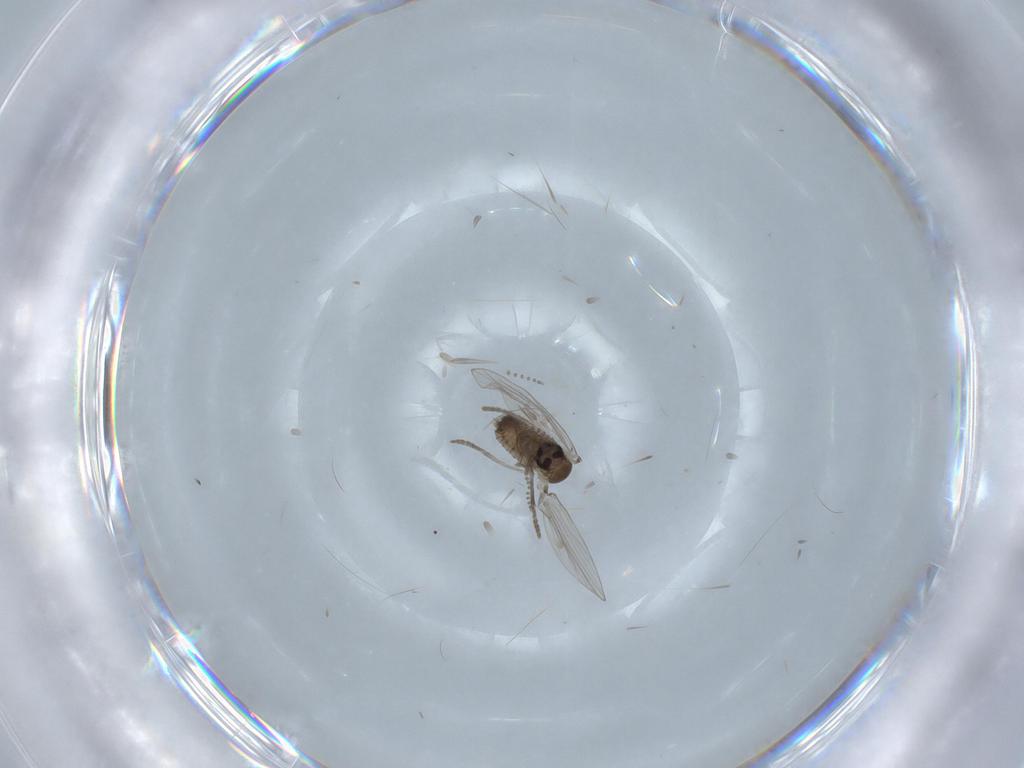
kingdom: Animalia
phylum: Arthropoda
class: Insecta
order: Diptera
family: Psychodidae
